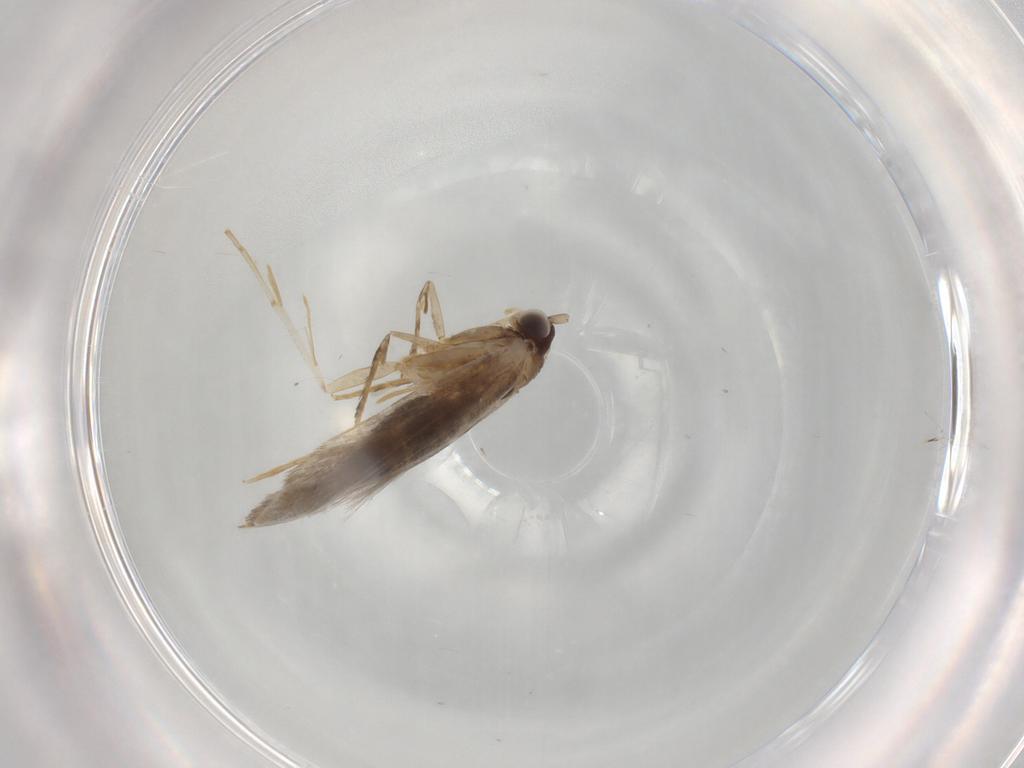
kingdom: Animalia
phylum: Arthropoda
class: Insecta
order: Lepidoptera
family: Tineidae
